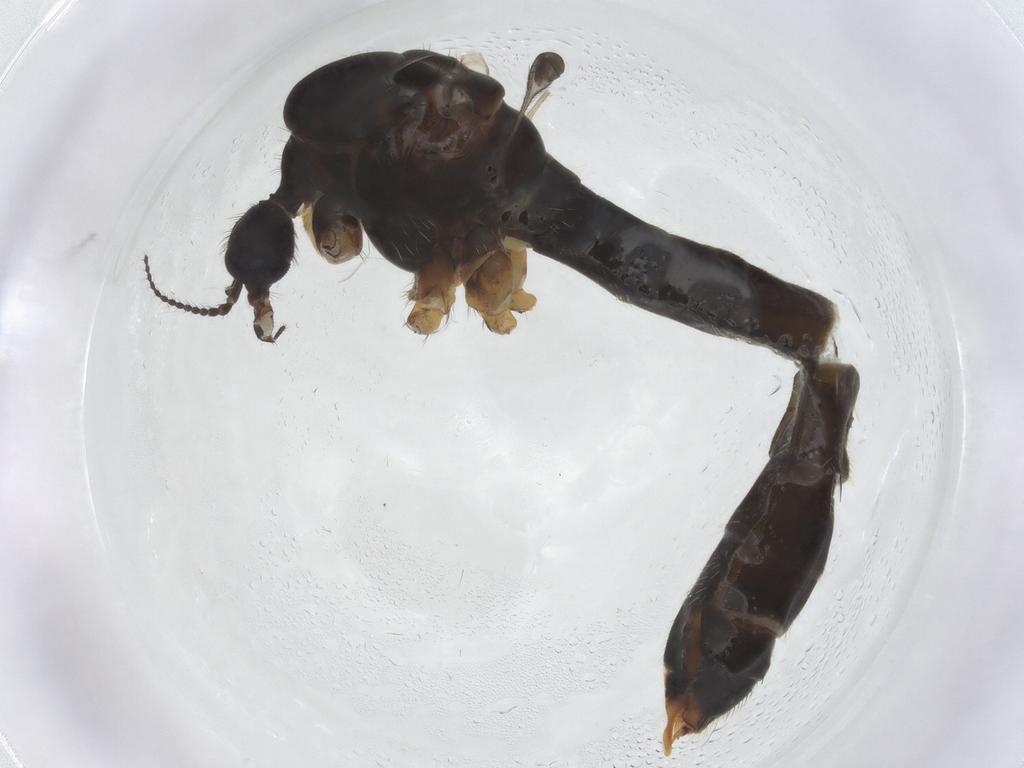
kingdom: Animalia
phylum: Arthropoda
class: Insecta
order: Diptera
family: Chironomidae
